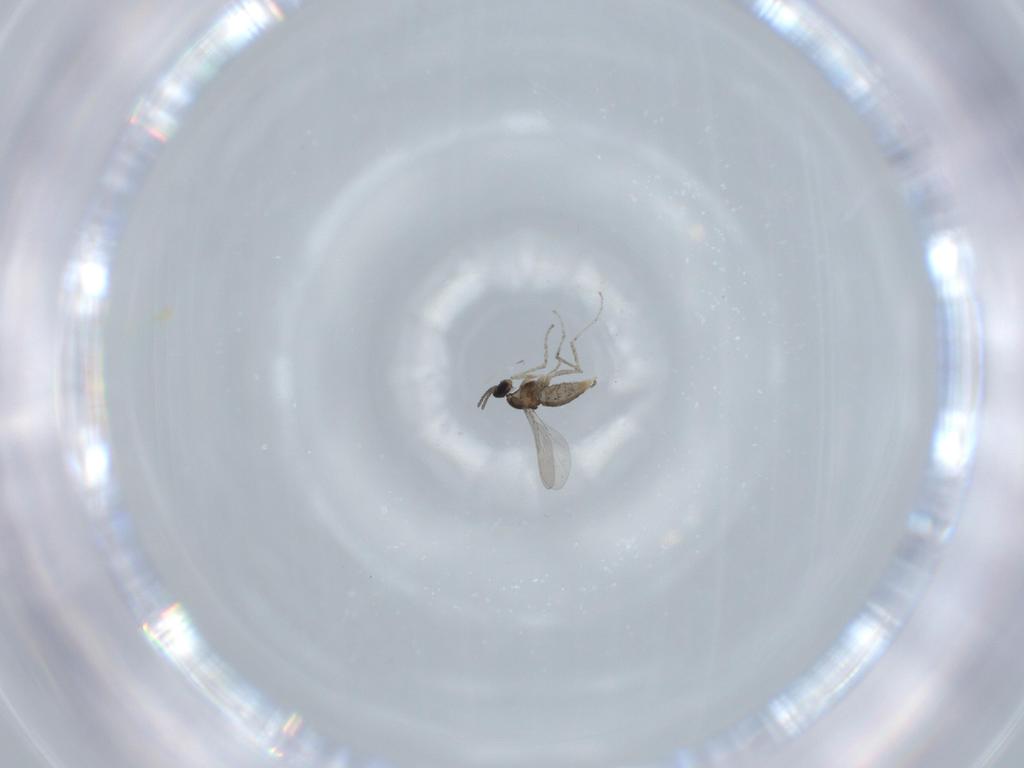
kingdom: Animalia
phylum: Arthropoda
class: Insecta
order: Diptera
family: Cecidomyiidae
